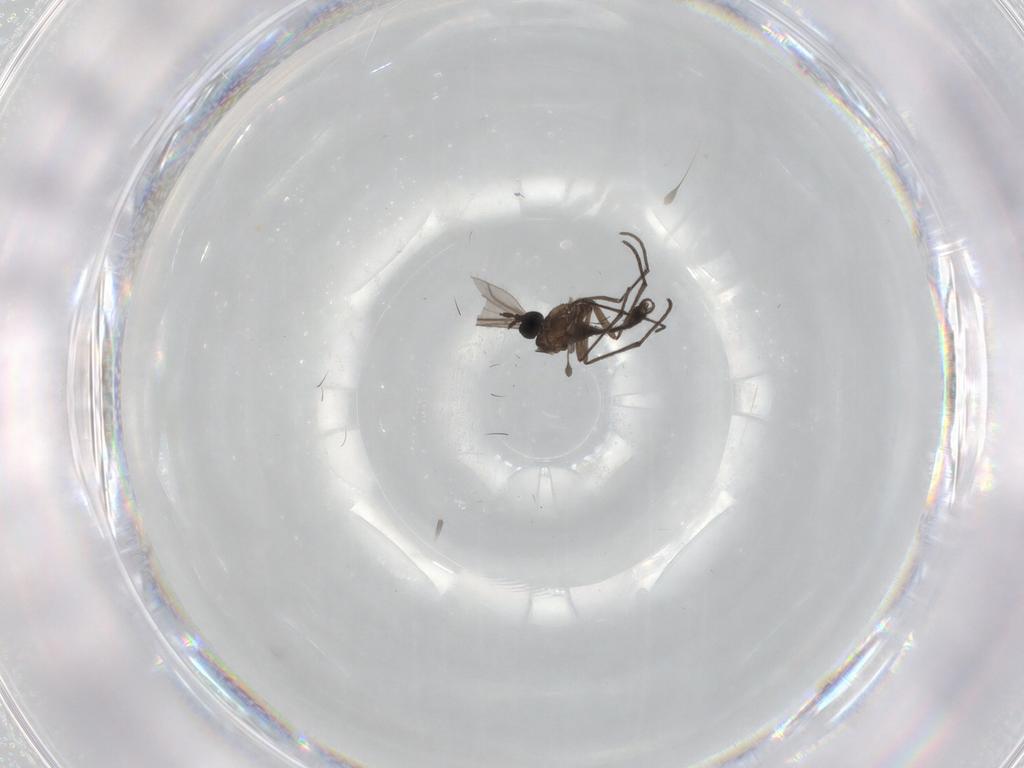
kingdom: Animalia
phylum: Arthropoda
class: Insecta
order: Diptera
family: Sciaridae
